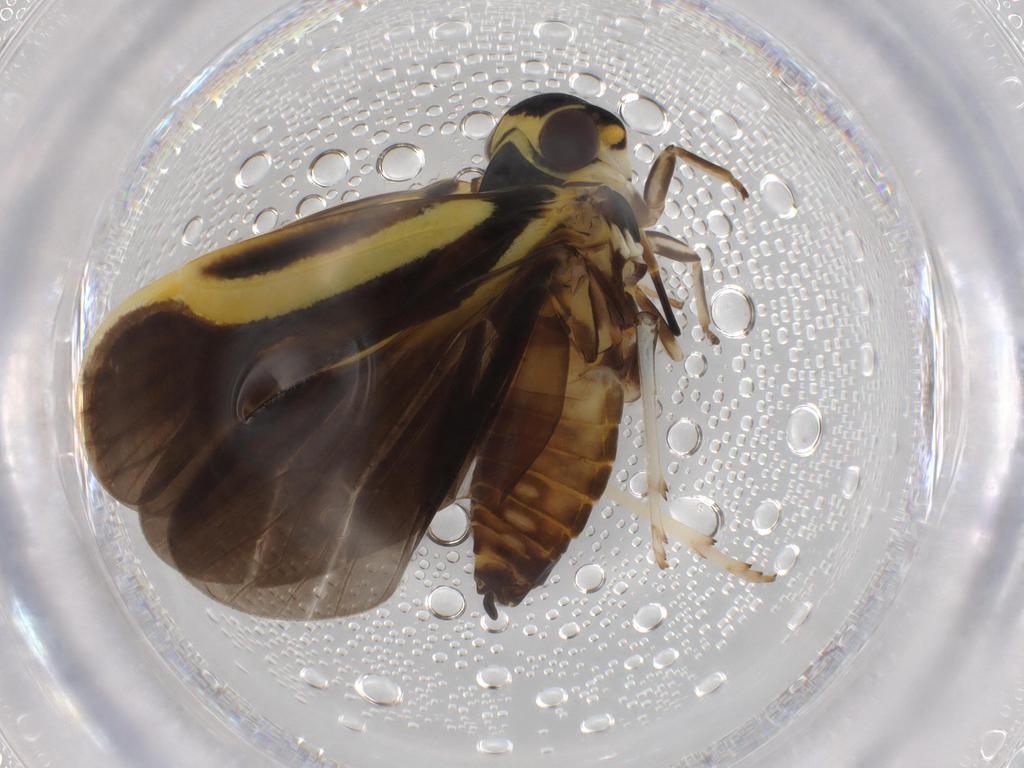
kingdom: Animalia
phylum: Arthropoda
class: Insecta
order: Hemiptera
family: Achilidae
